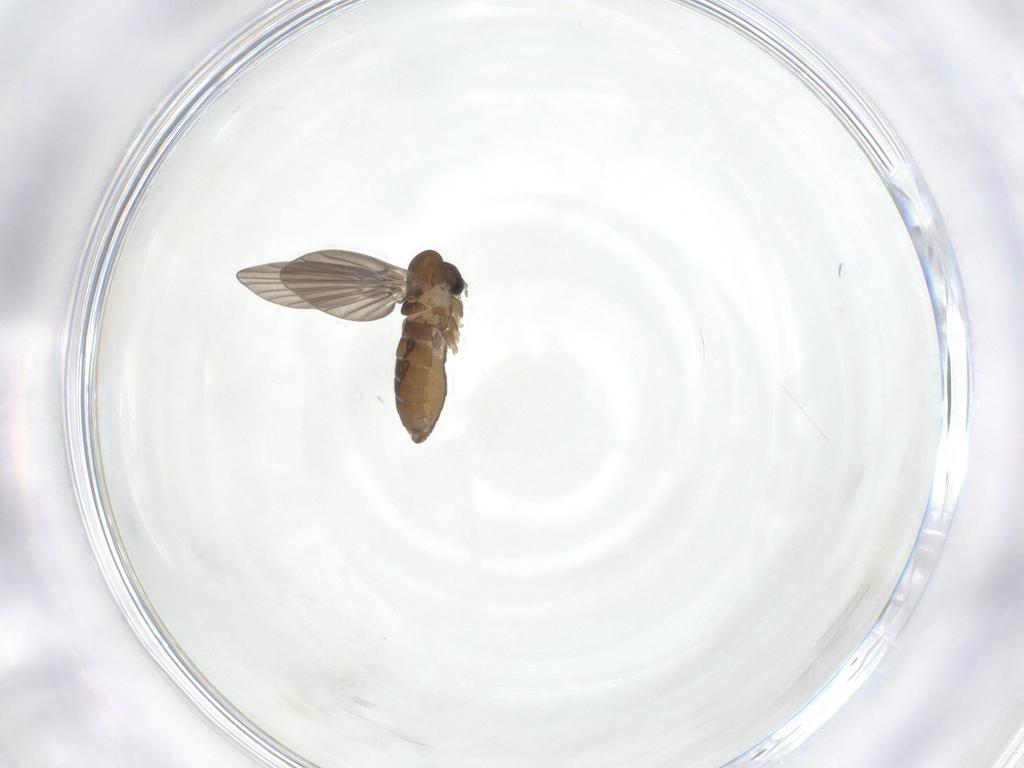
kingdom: Animalia
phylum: Arthropoda
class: Insecta
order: Diptera
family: Psychodidae
